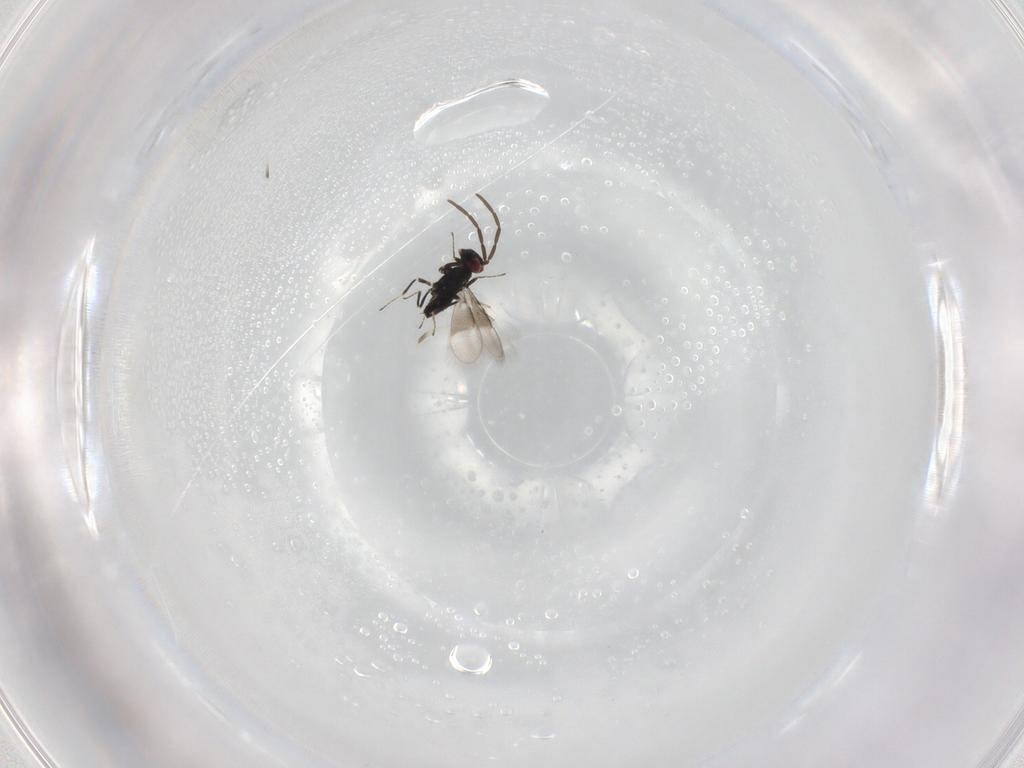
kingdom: Animalia
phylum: Arthropoda
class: Insecta
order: Hymenoptera
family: Azotidae
